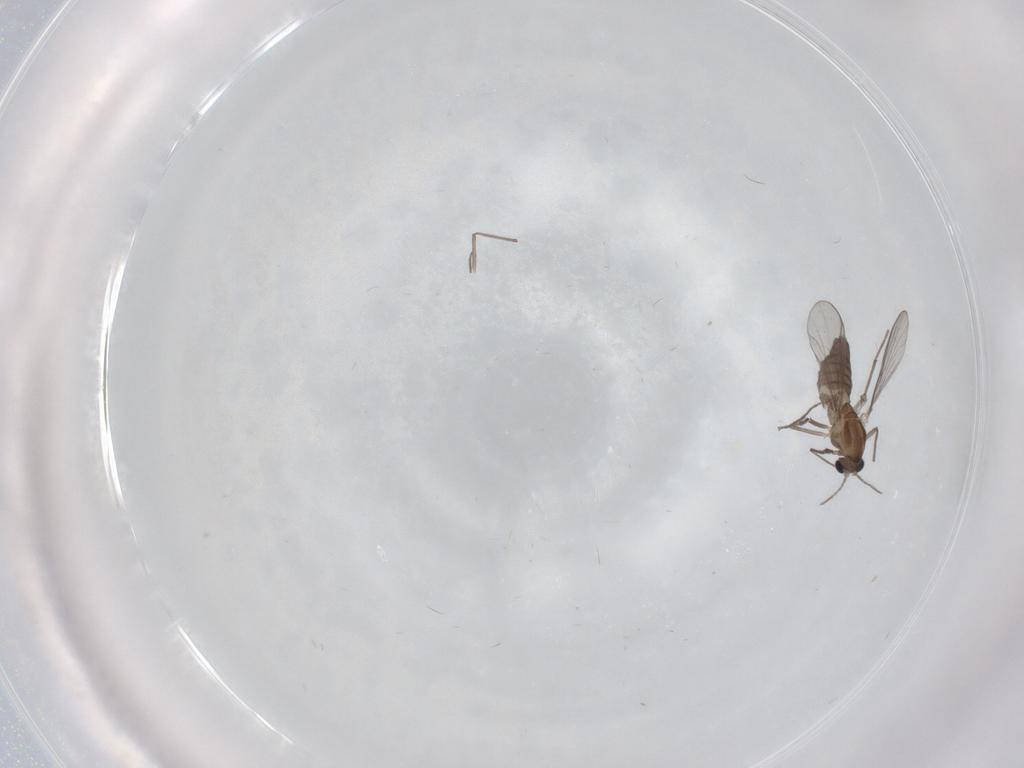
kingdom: Animalia
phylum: Arthropoda
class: Insecta
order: Diptera
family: Chironomidae
